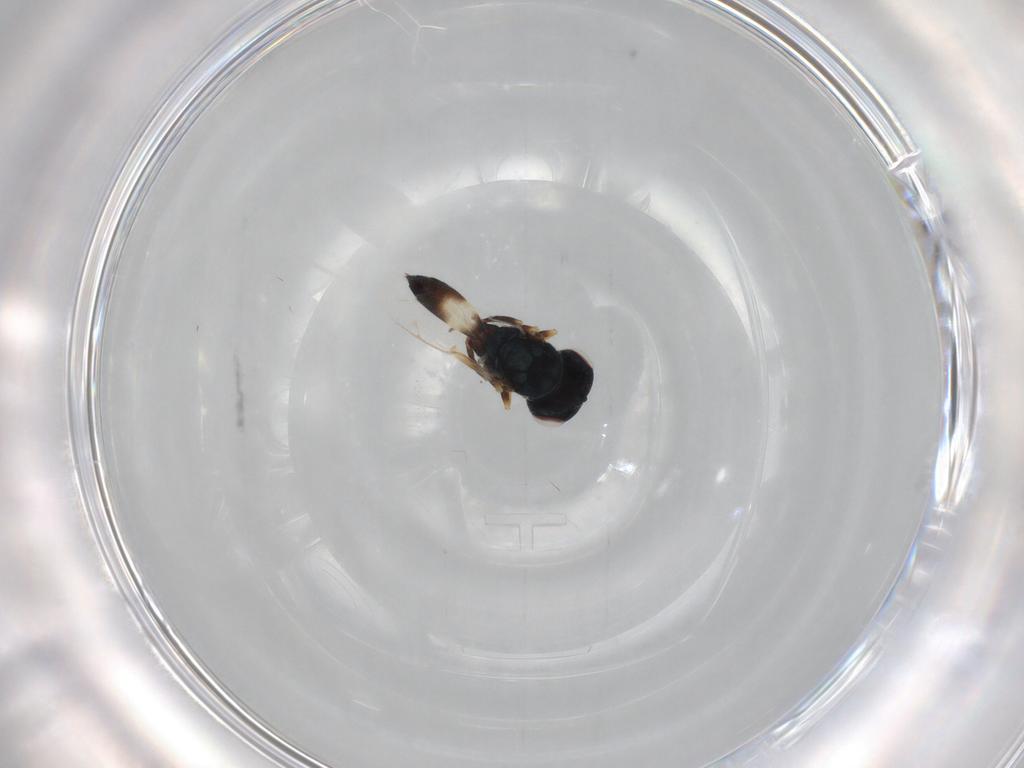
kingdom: Animalia
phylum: Arthropoda
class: Insecta
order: Hymenoptera
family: Pteromalidae
